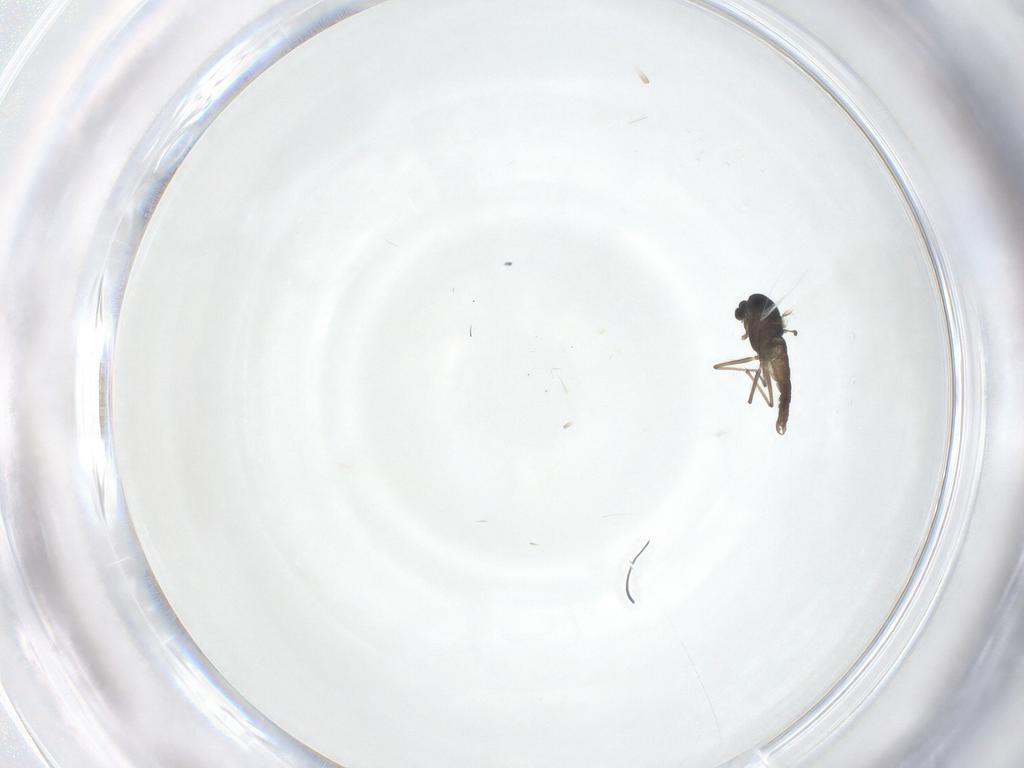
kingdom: Animalia
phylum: Arthropoda
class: Insecta
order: Diptera
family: Chironomidae
